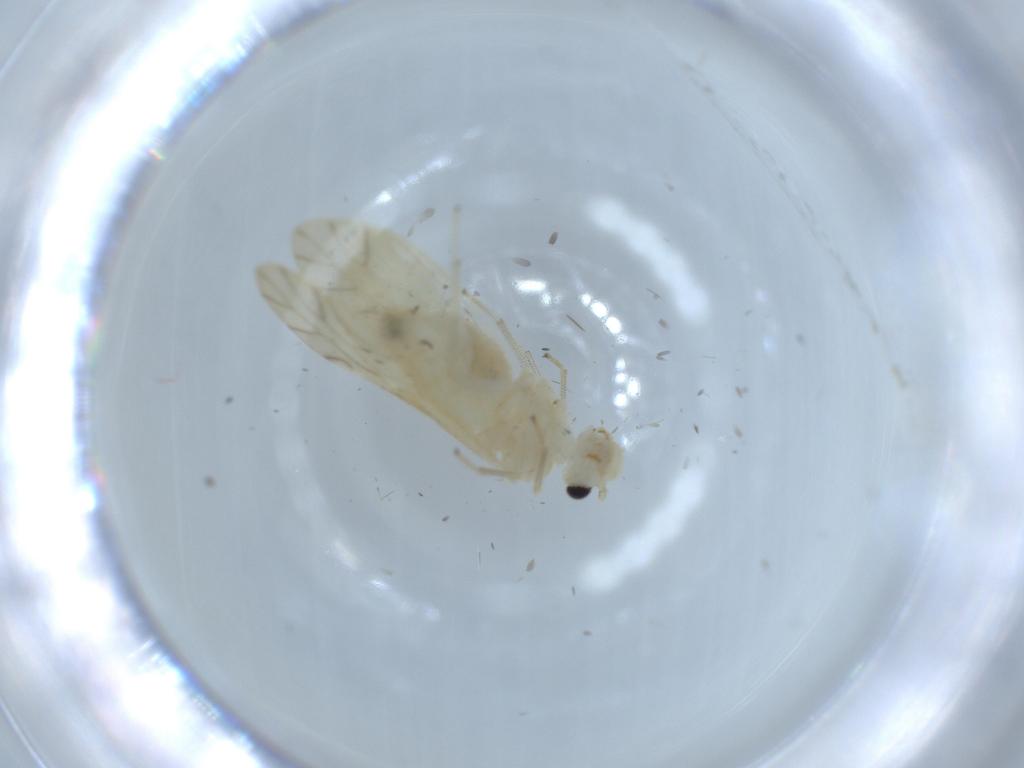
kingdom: Animalia
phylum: Arthropoda
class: Insecta
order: Psocodea
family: Caeciliusidae
